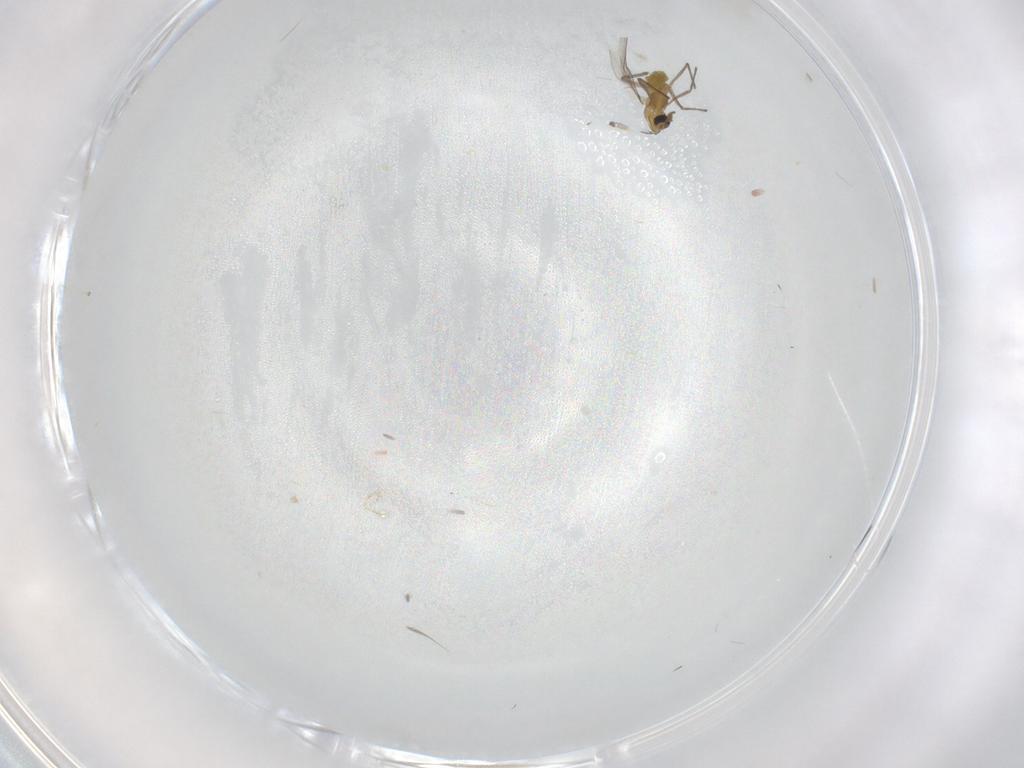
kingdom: Animalia
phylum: Arthropoda
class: Insecta
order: Diptera
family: Chironomidae
